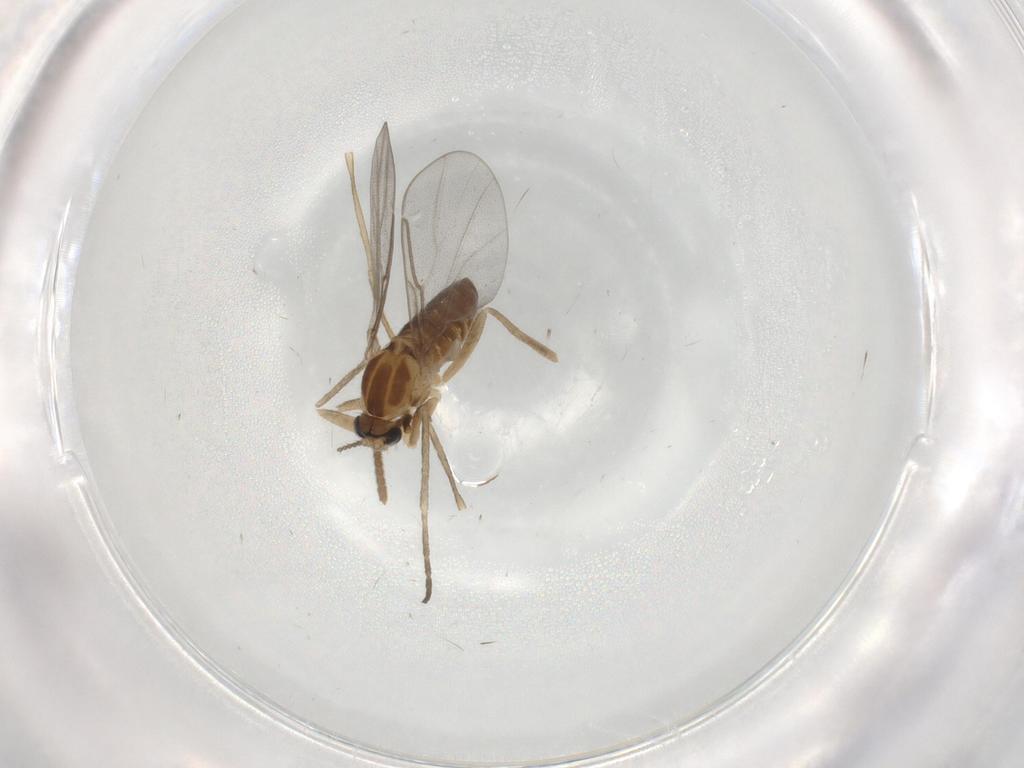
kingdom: Animalia
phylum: Arthropoda
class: Insecta
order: Diptera
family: Cecidomyiidae
